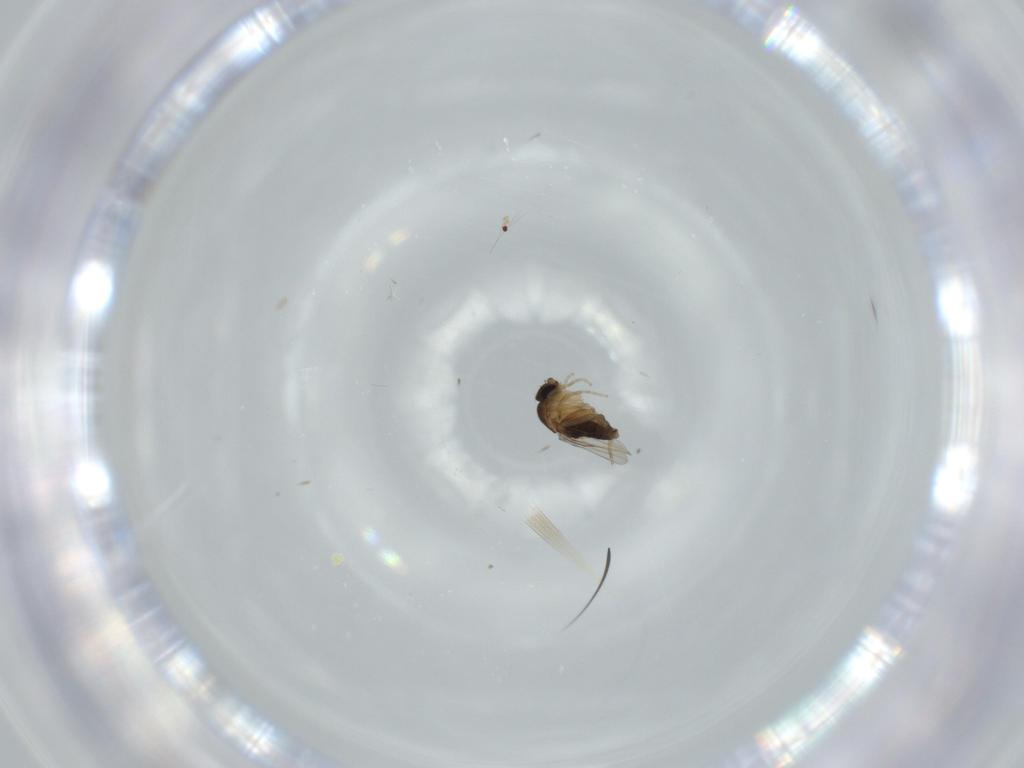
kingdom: Animalia
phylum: Arthropoda
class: Insecta
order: Diptera
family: Phoridae
